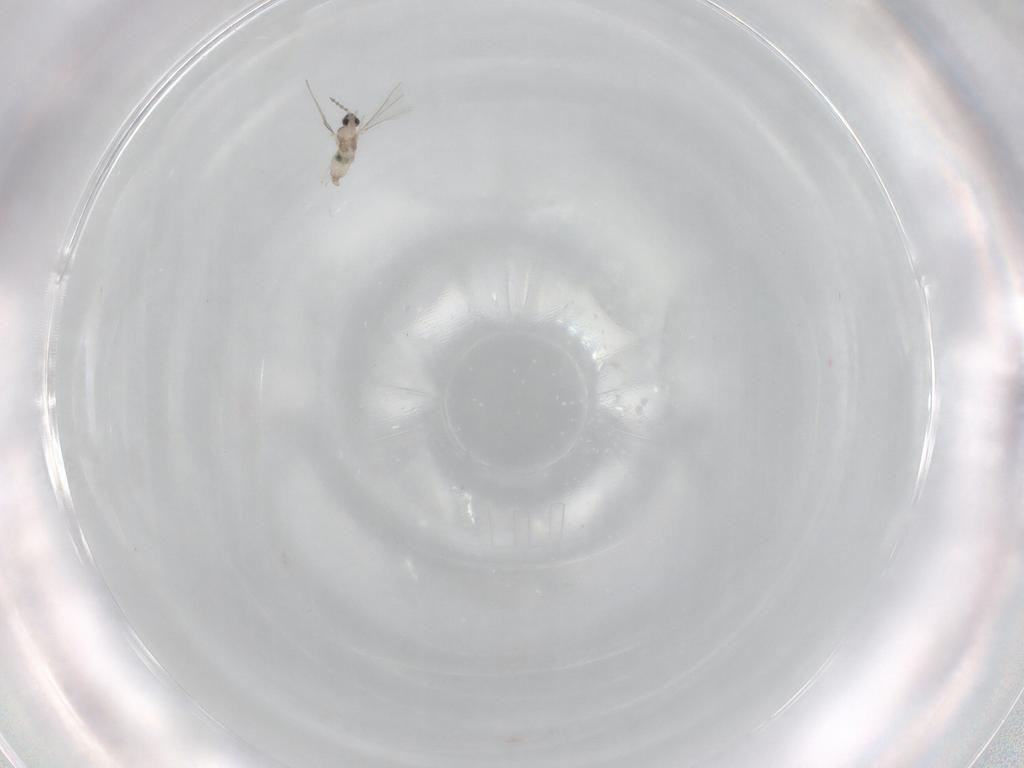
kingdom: Animalia
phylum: Arthropoda
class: Insecta
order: Diptera
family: Cecidomyiidae
